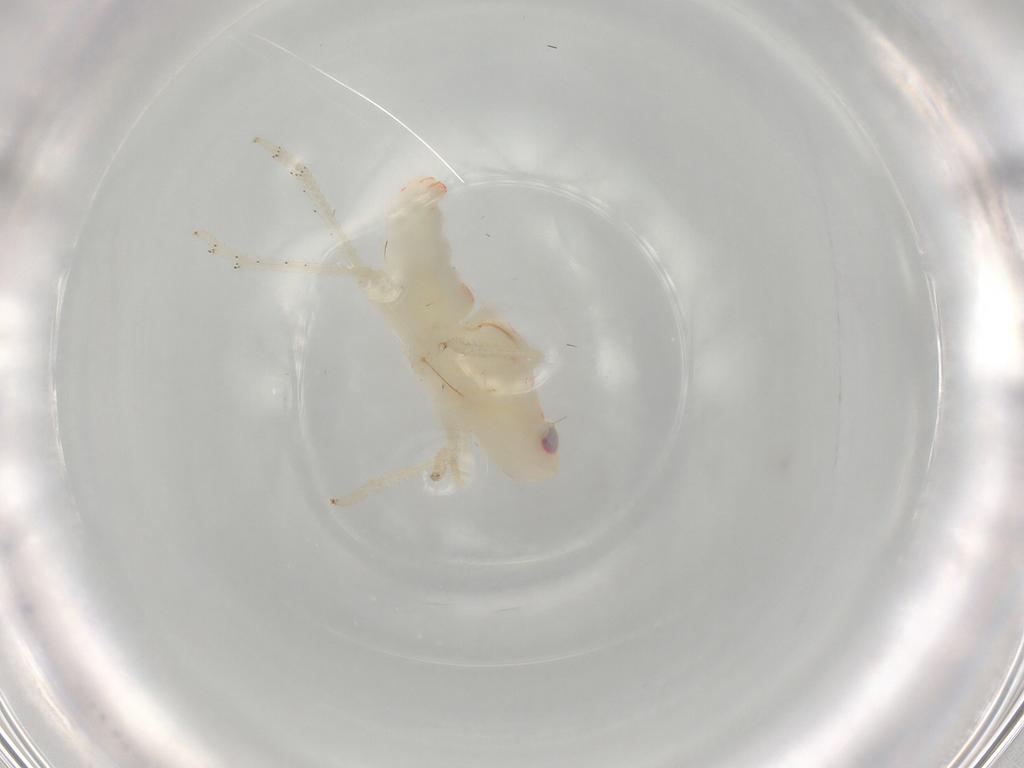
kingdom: Animalia
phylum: Arthropoda
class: Insecta
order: Hemiptera
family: Tropiduchidae
